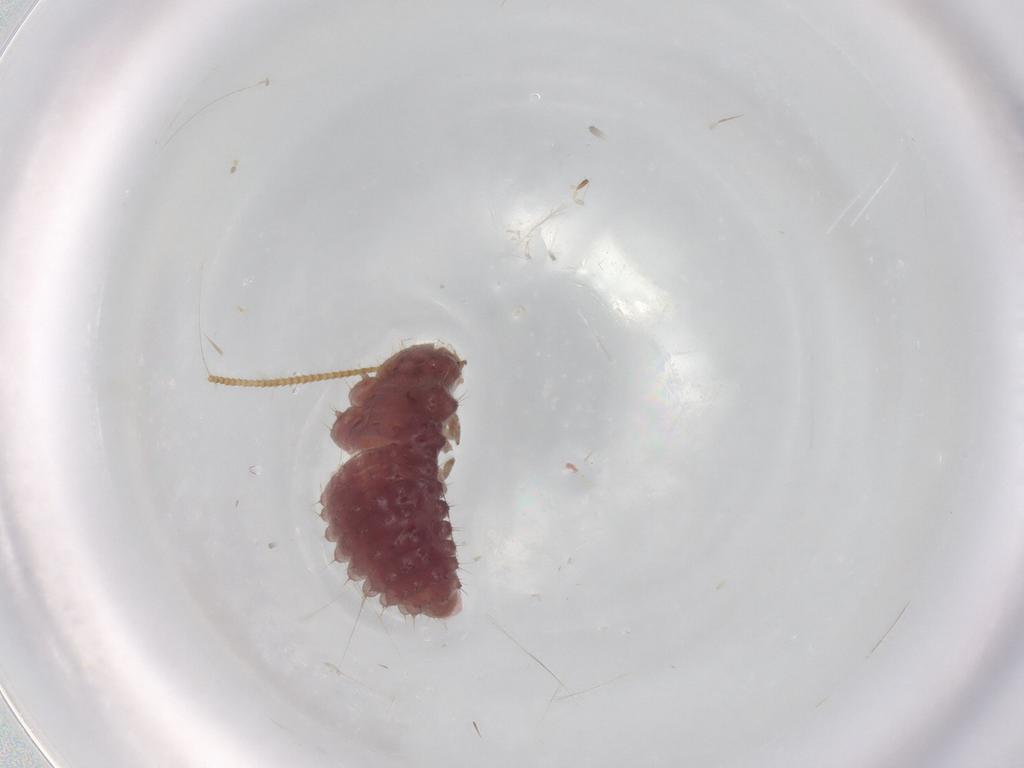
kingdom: Animalia
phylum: Arthropoda
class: Insecta
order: Coleoptera
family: Coccinellidae
